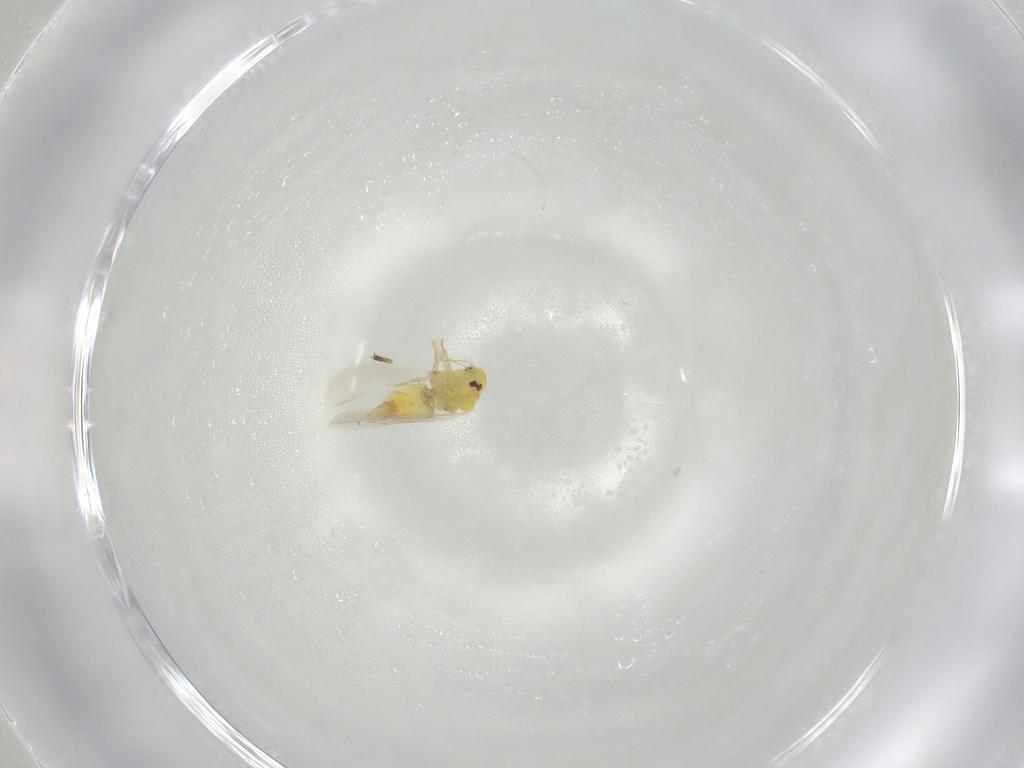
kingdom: Animalia
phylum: Arthropoda
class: Insecta
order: Hemiptera
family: Aleyrodidae
